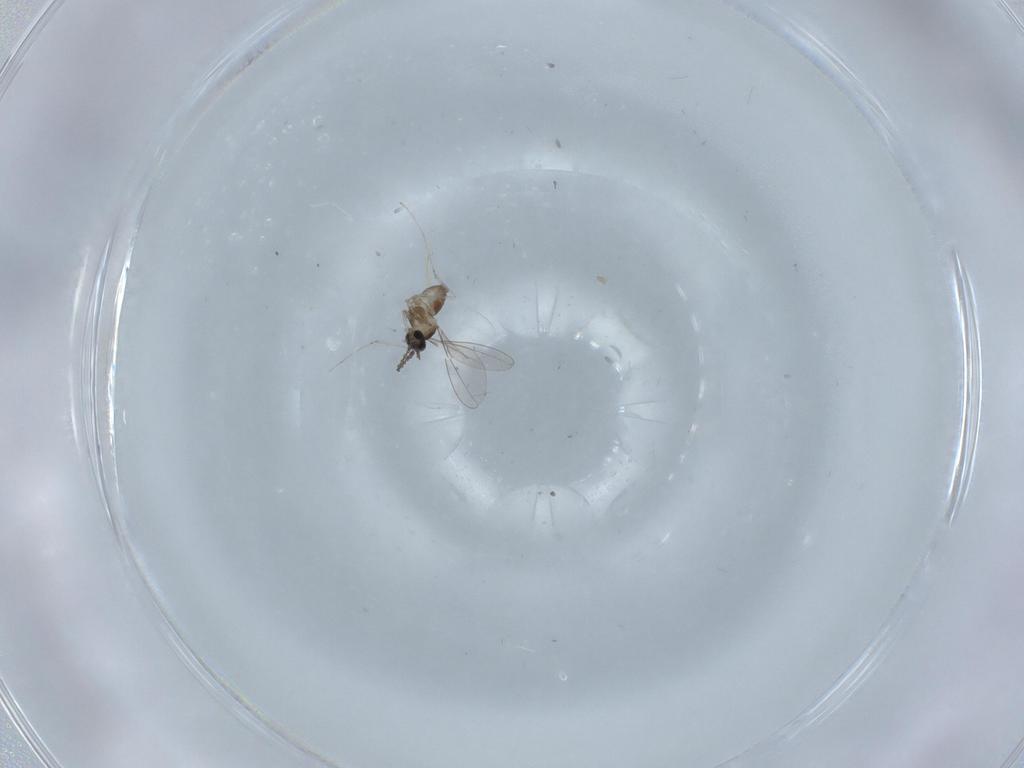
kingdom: Animalia
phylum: Arthropoda
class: Insecta
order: Diptera
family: Cecidomyiidae
